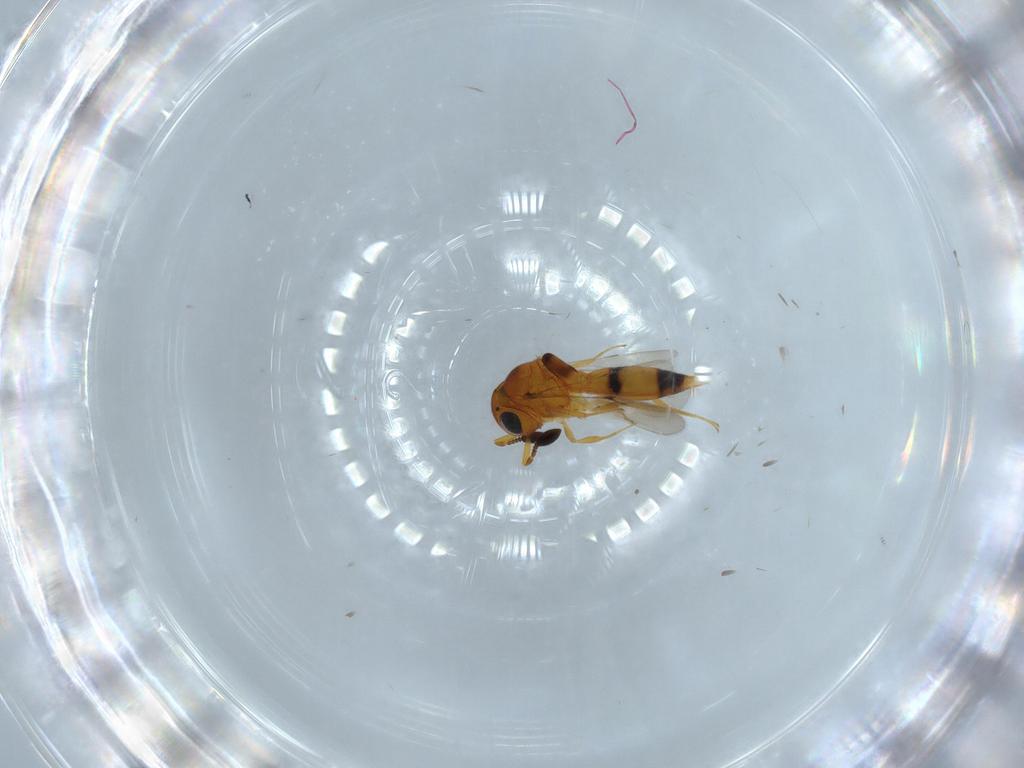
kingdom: Animalia
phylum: Arthropoda
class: Insecta
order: Hymenoptera
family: Scelionidae
